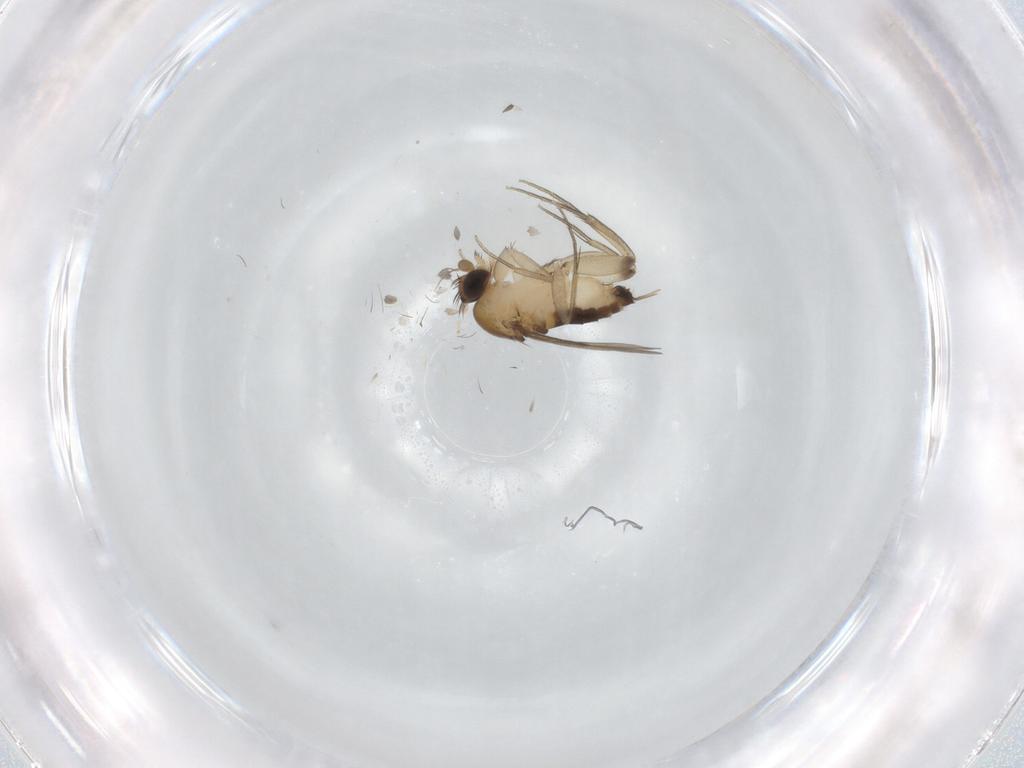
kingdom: Animalia
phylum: Arthropoda
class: Insecta
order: Diptera
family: Phoridae
